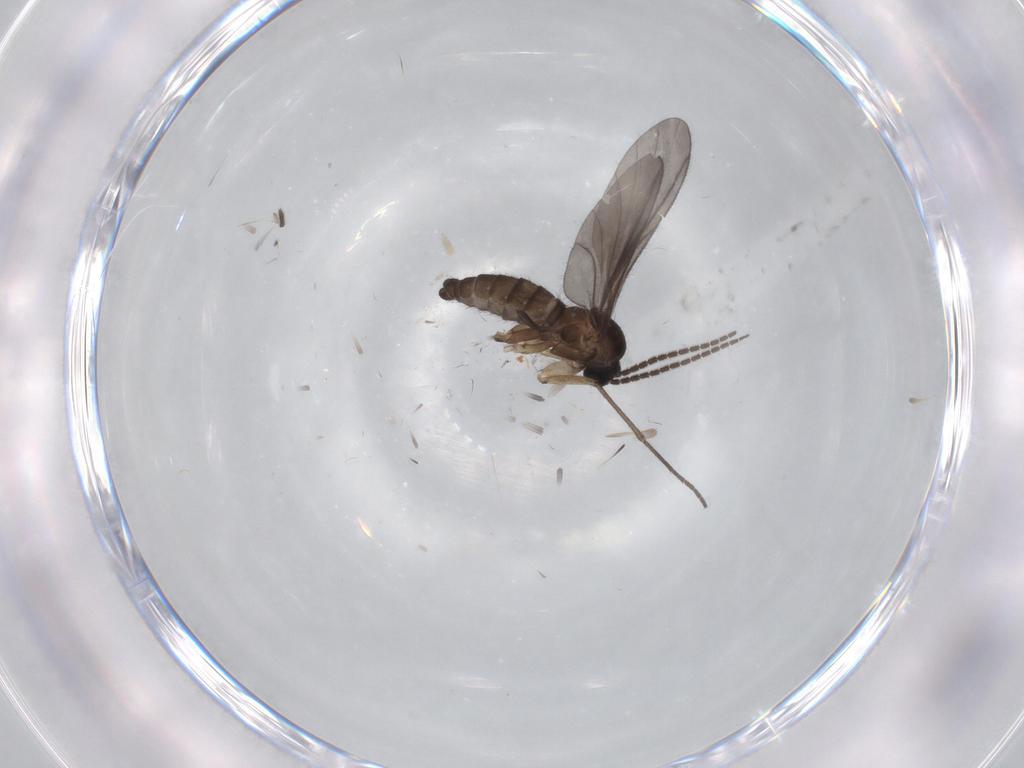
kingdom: Animalia
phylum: Arthropoda
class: Insecta
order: Diptera
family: Sciaridae
